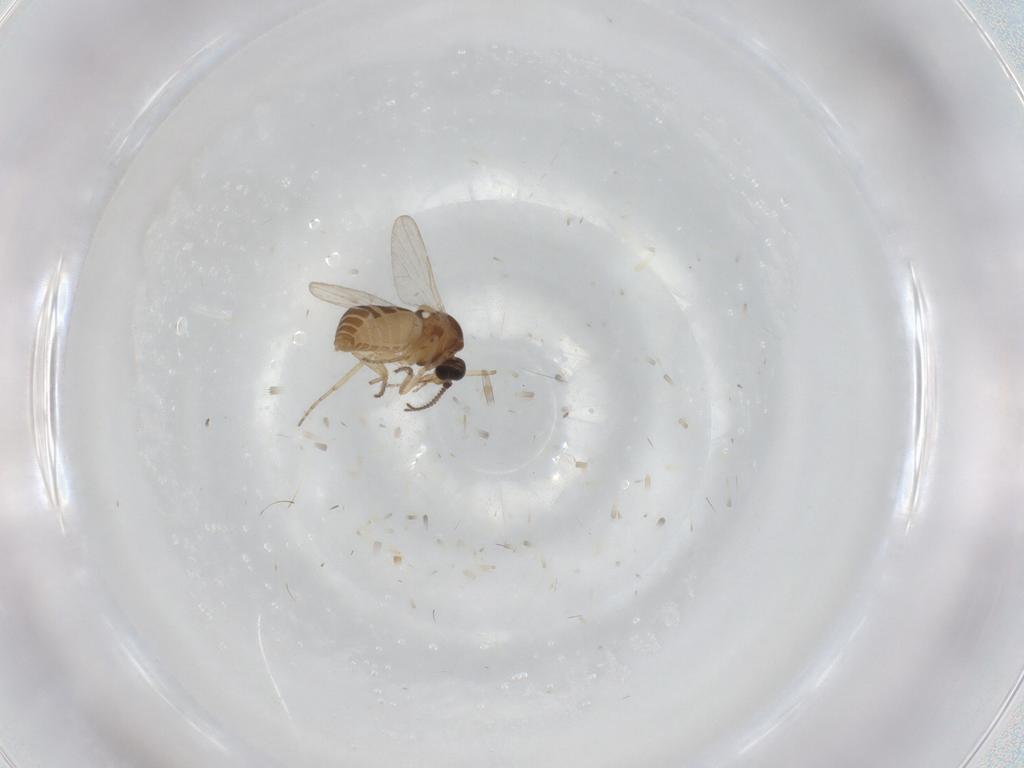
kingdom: Animalia
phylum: Arthropoda
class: Insecta
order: Diptera
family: Ceratopogonidae
